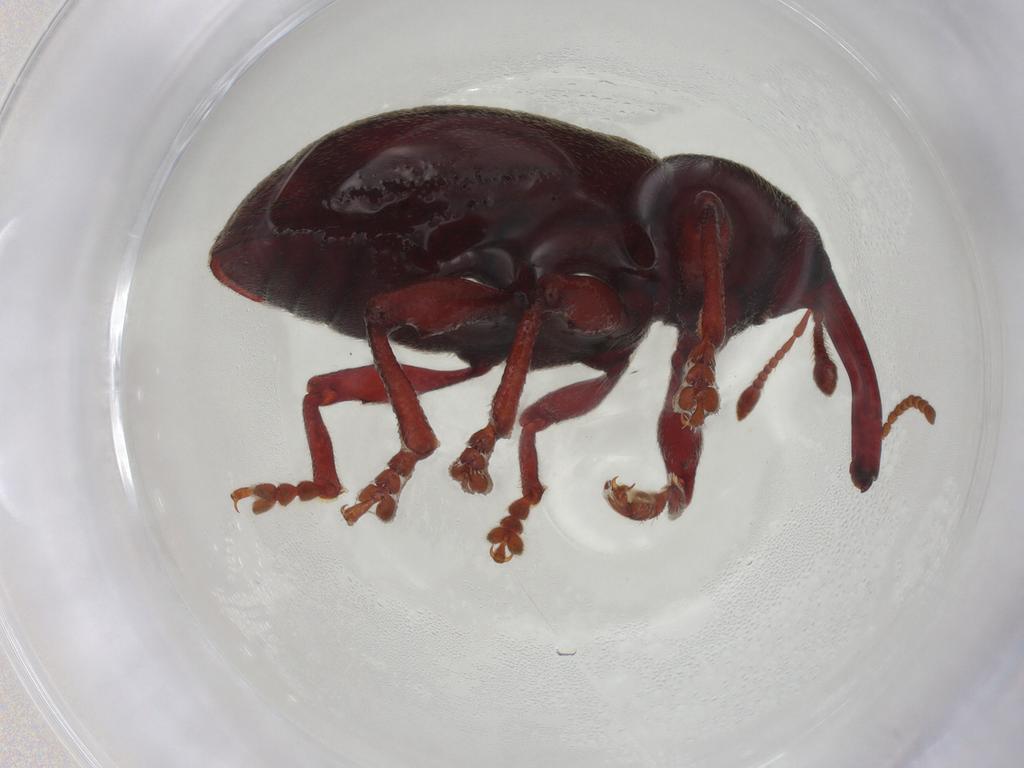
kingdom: Animalia
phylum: Arthropoda
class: Insecta
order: Coleoptera
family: Curculionidae
